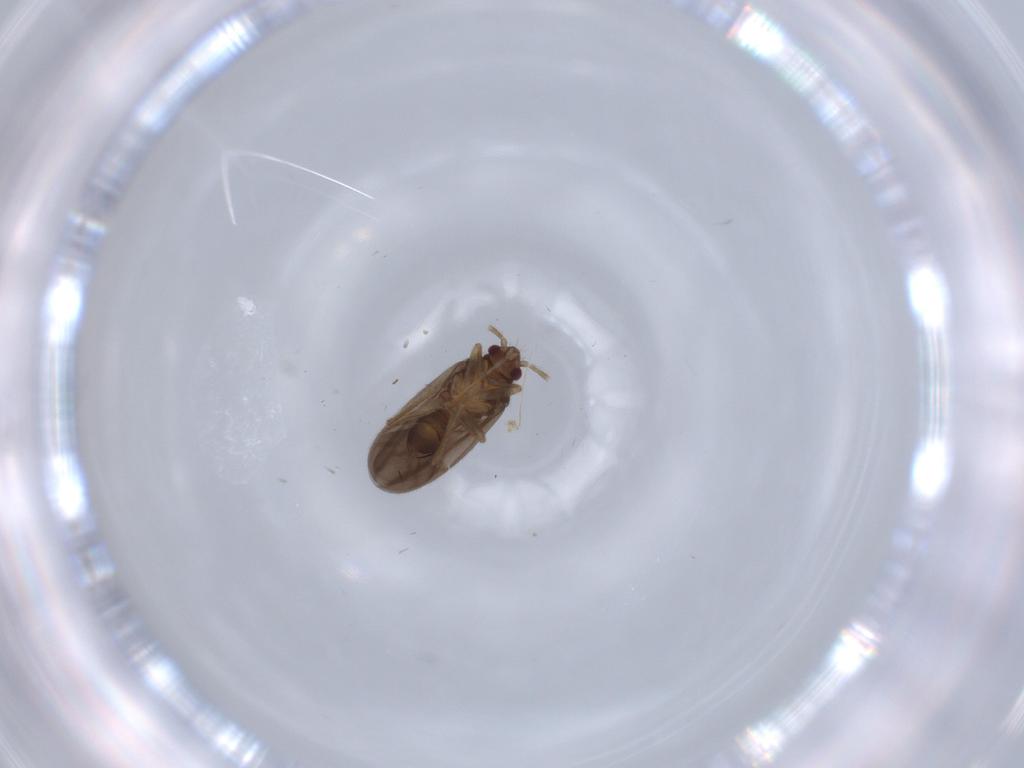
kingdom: Animalia
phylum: Arthropoda
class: Insecta
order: Hemiptera
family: Ceratocombidae
